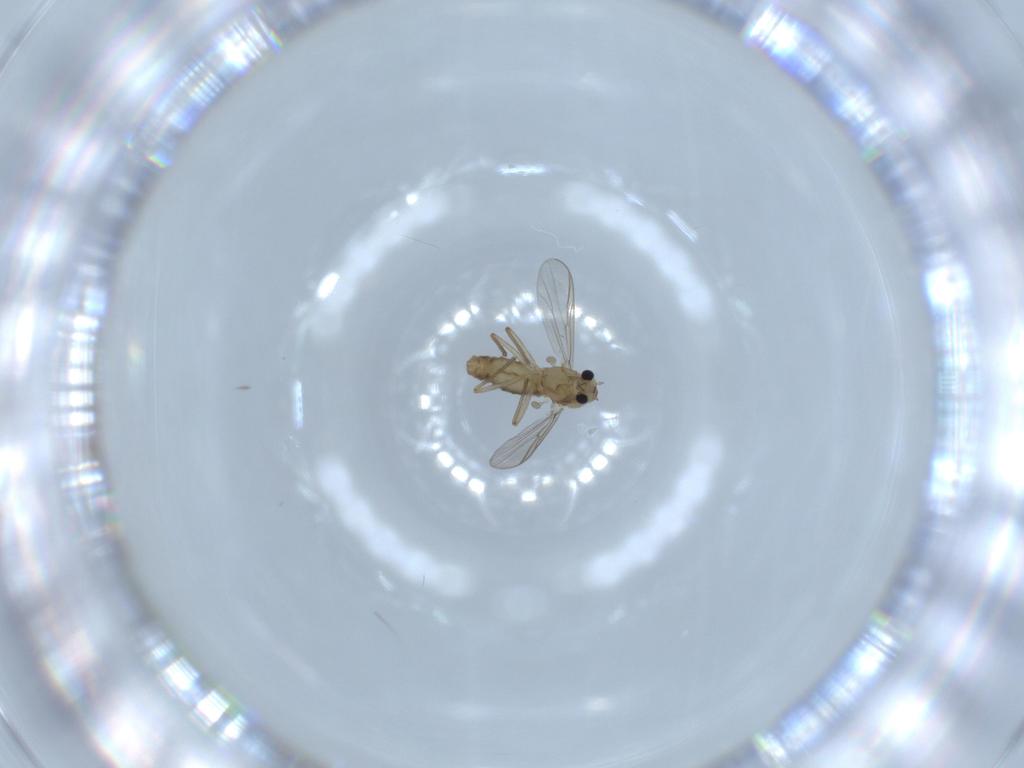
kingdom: Animalia
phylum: Arthropoda
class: Insecta
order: Diptera
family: Chironomidae
